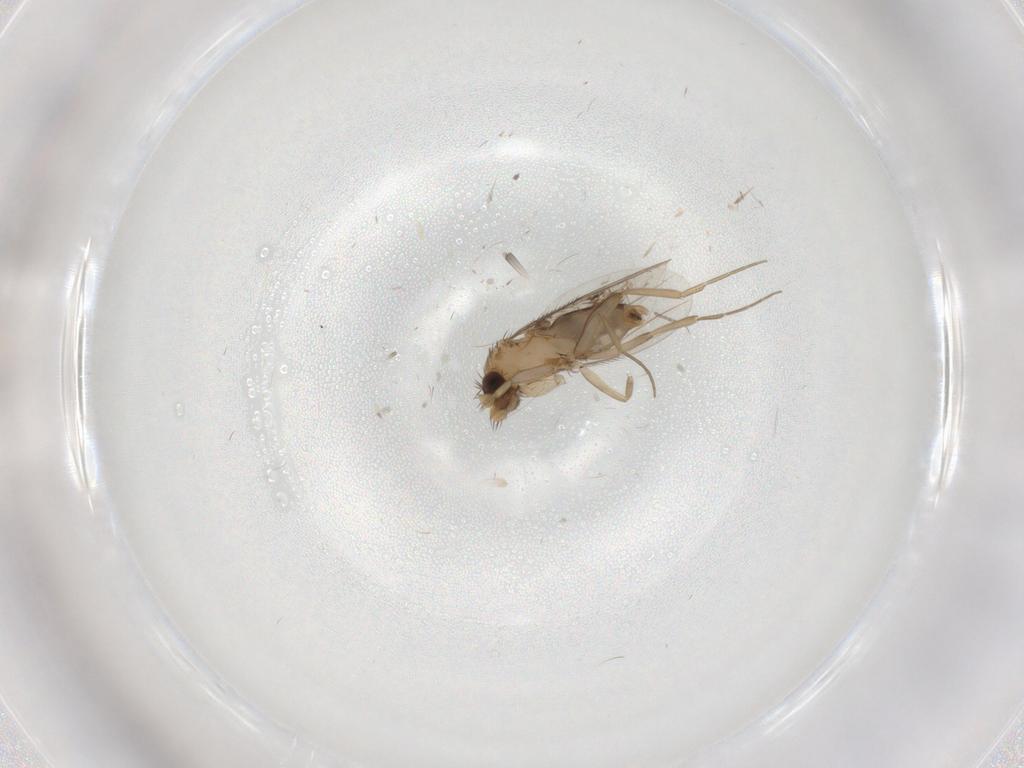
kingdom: Animalia
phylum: Arthropoda
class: Insecta
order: Diptera
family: Phoridae
